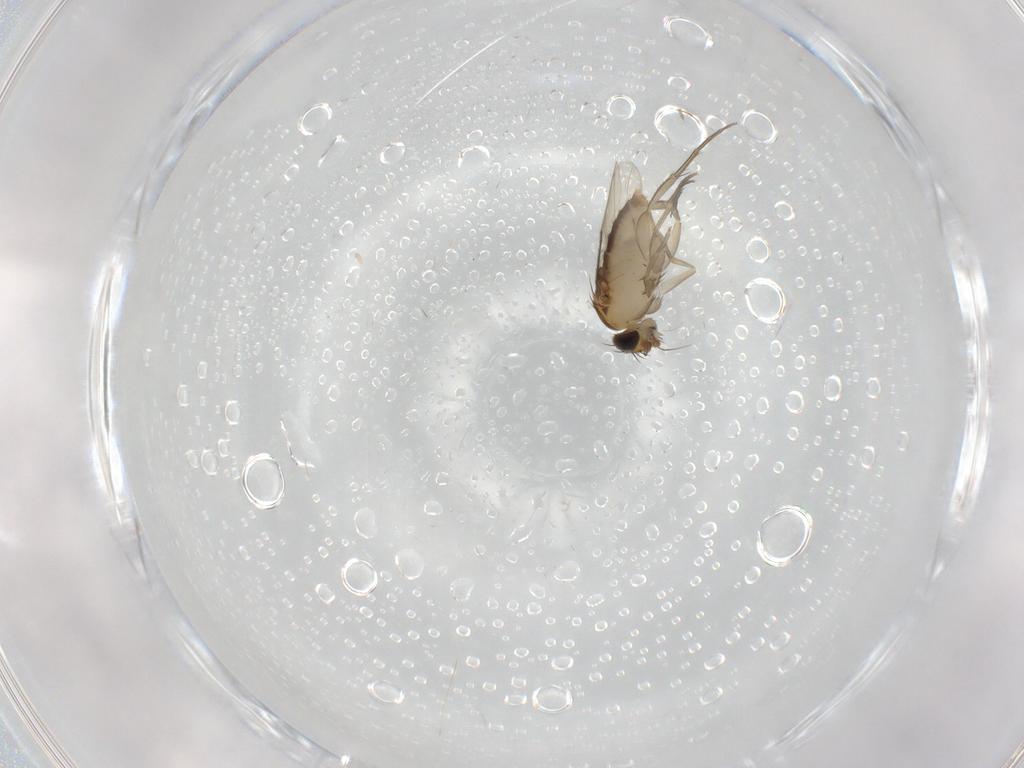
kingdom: Animalia
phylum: Arthropoda
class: Insecta
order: Diptera
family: Phoridae
